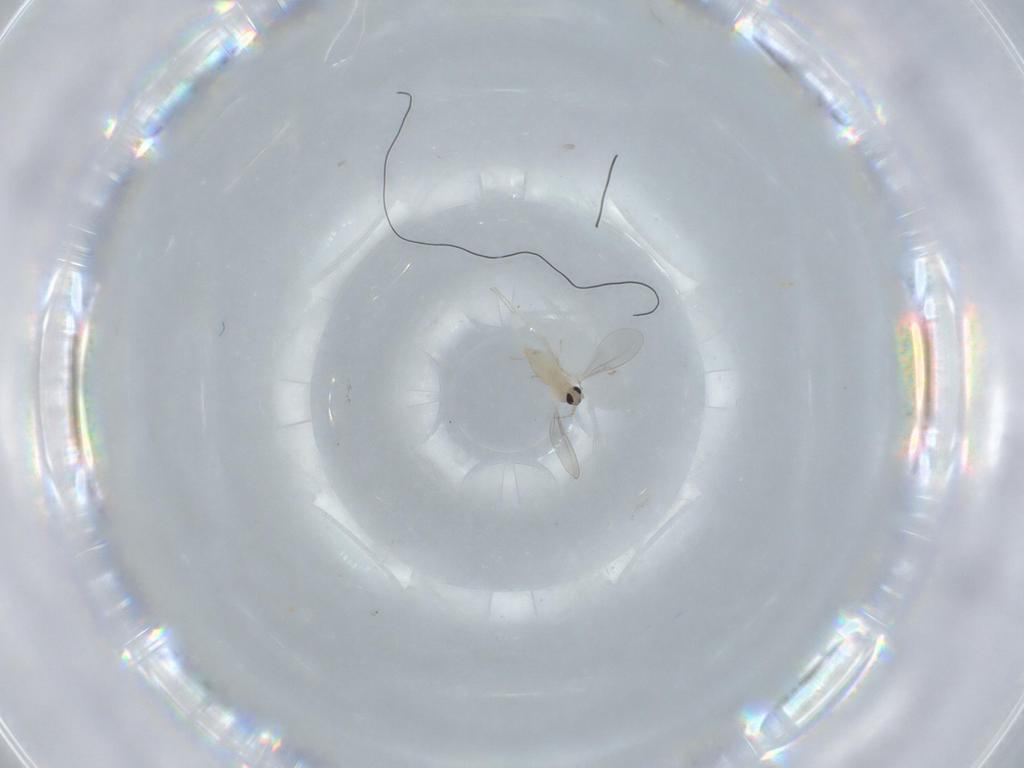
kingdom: Animalia
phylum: Arthropoda
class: Insecta
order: Diptera
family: Cecidomyiidae
